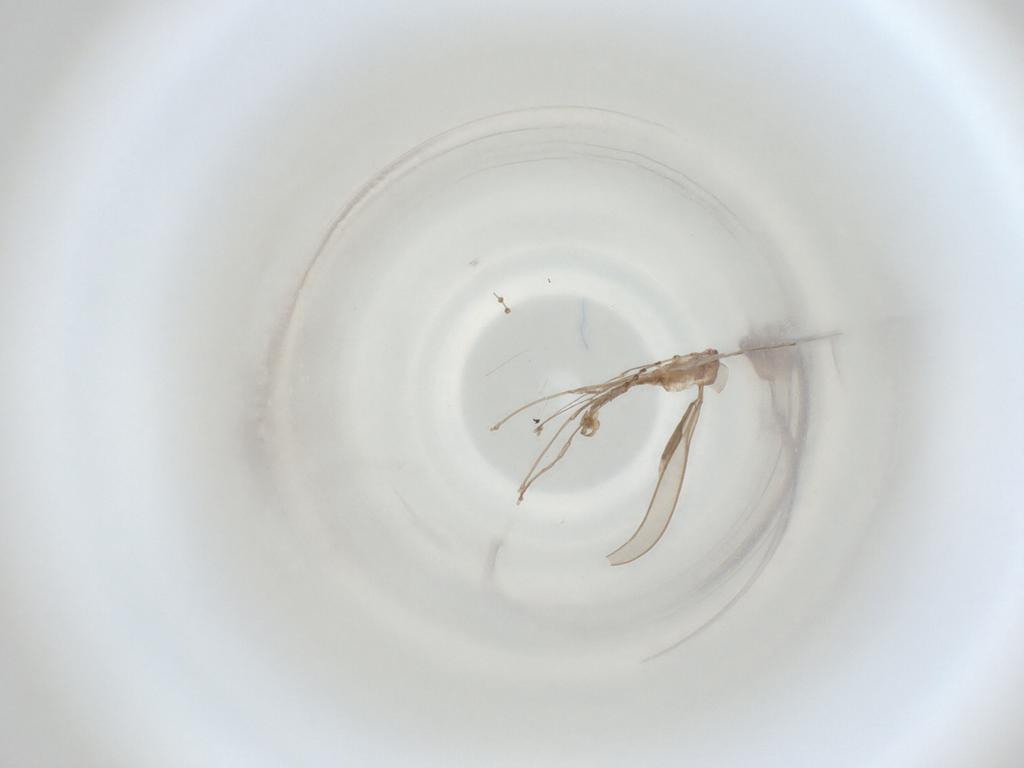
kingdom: Animalia
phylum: Arthropoda
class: Insecta
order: Diptera
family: Cecidomyiidae
